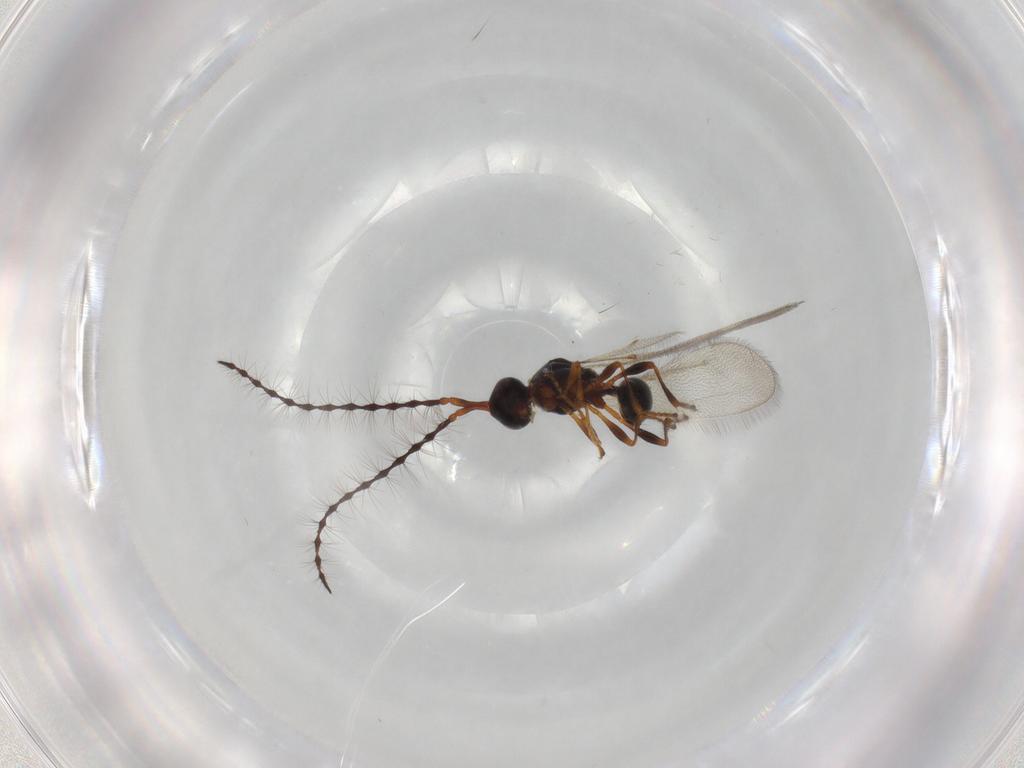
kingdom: Animalia
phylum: Arthropoda
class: Insecta
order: Hymenoptera
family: Diapriidae
